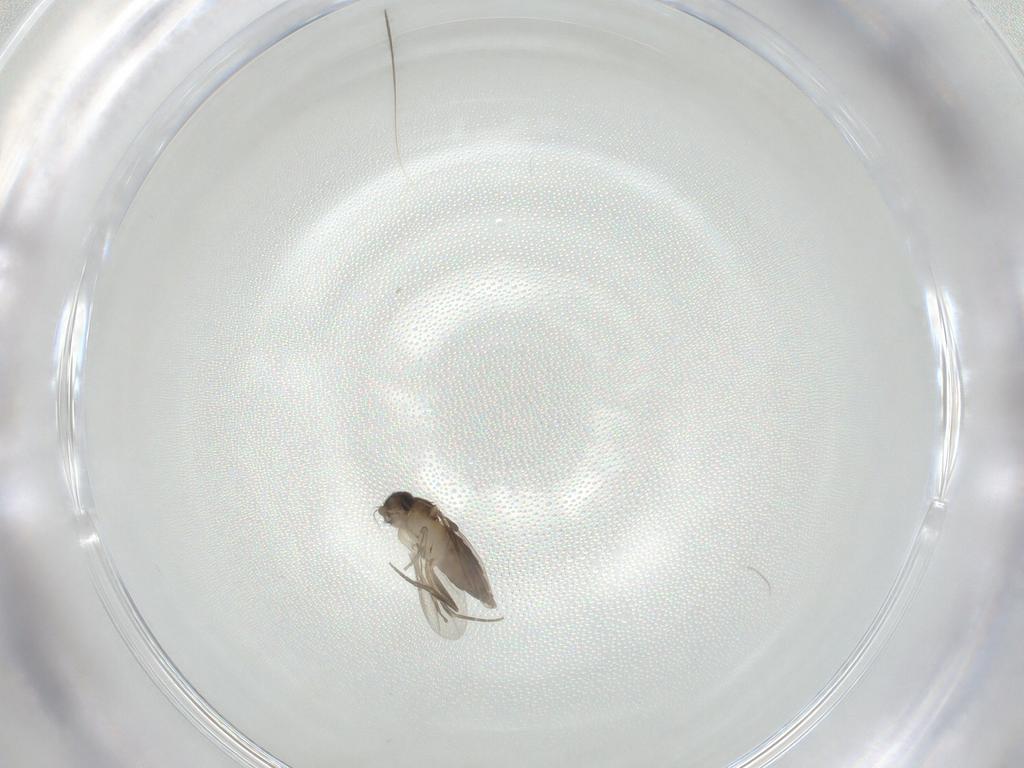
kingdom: Animalia
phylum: Arthropoda
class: Insecta
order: Diptera
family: Phoridae
